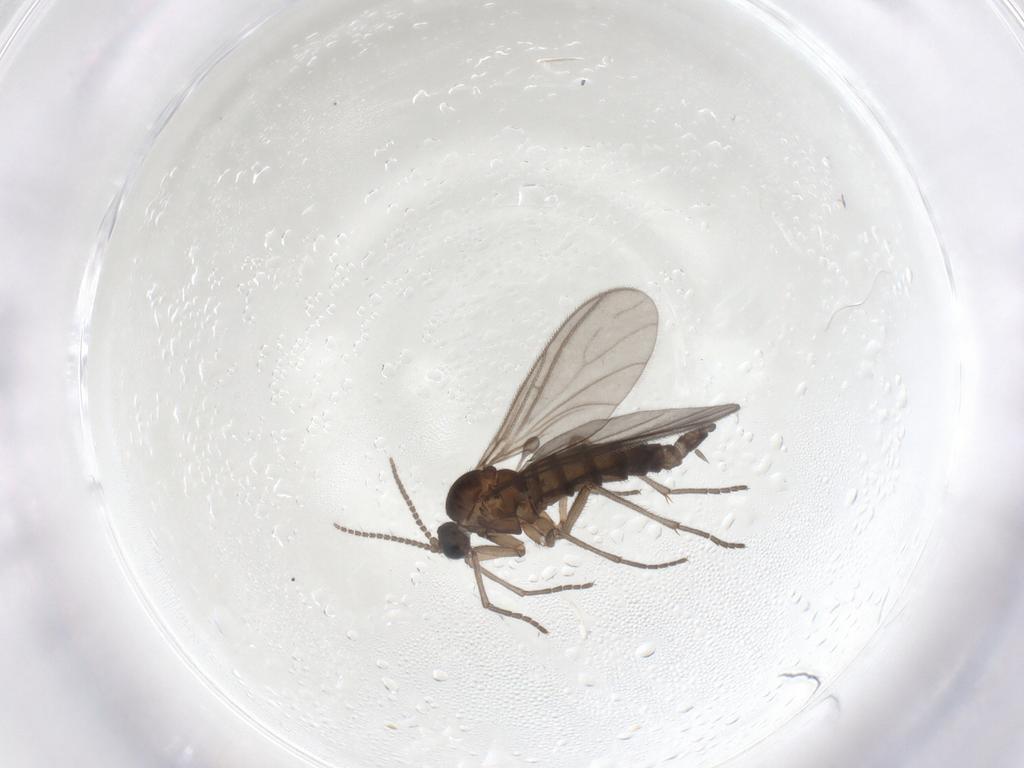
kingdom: Animalia
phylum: Arthropoda
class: Insecta
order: Diptera
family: Sciaridae
